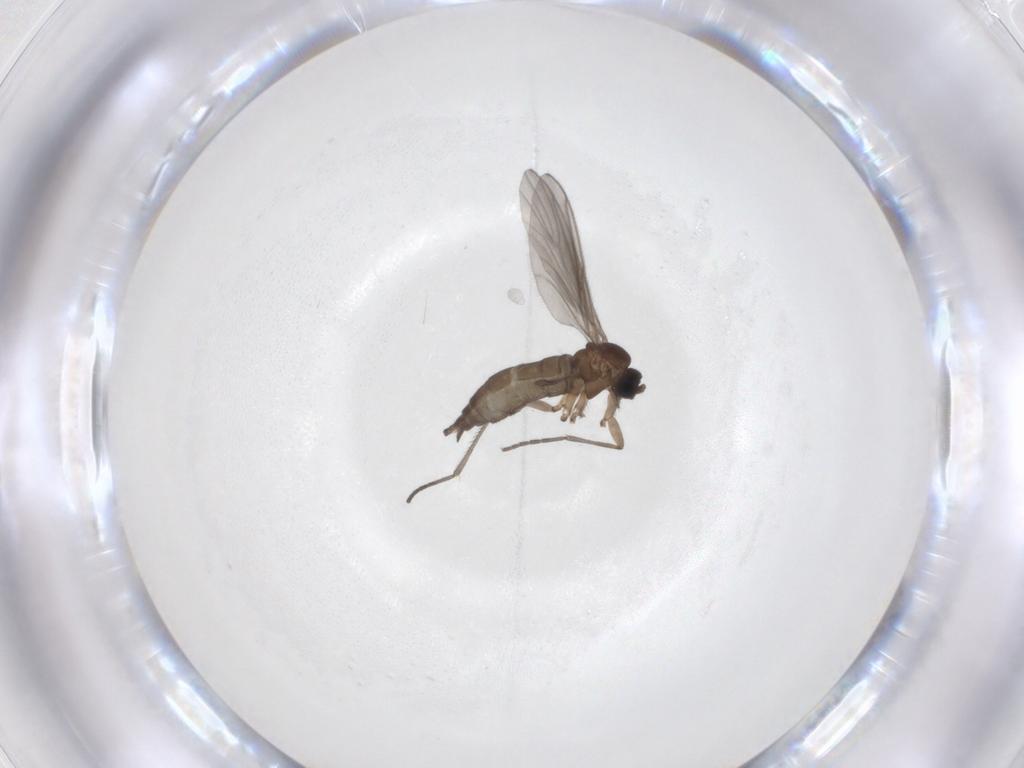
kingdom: Animalia
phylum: Arthropoda
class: Insecta
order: Diptera
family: Sciaridae
